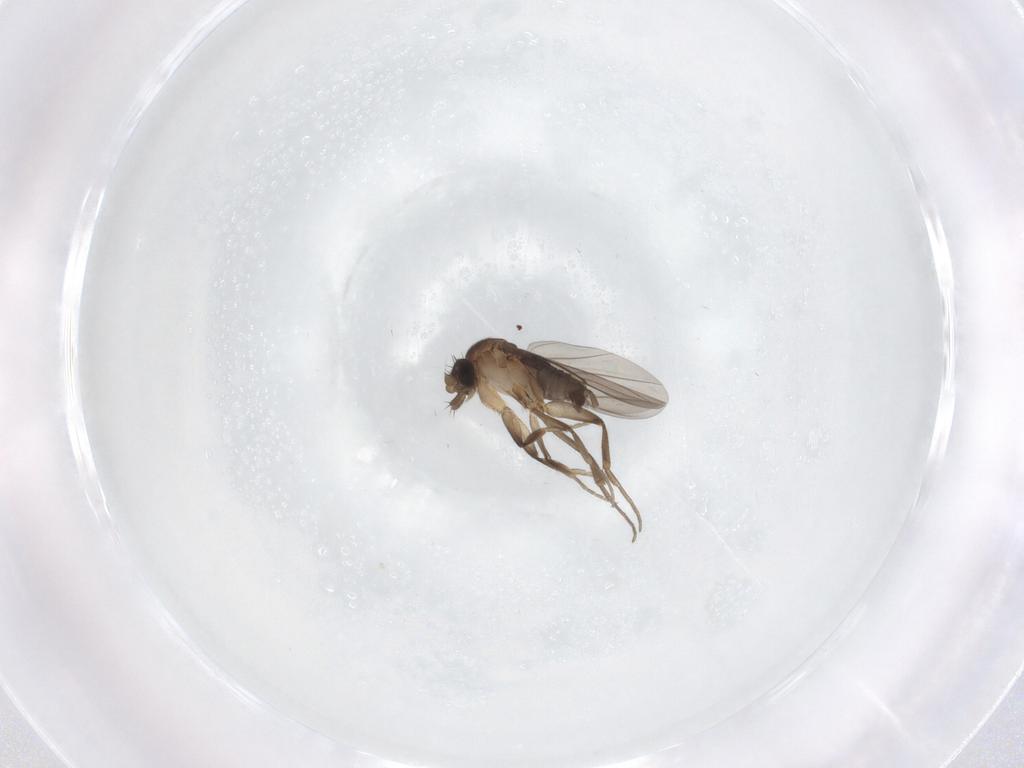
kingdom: Animalia
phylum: Arthropoda
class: Insecta
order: Diptera
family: Phoridae
